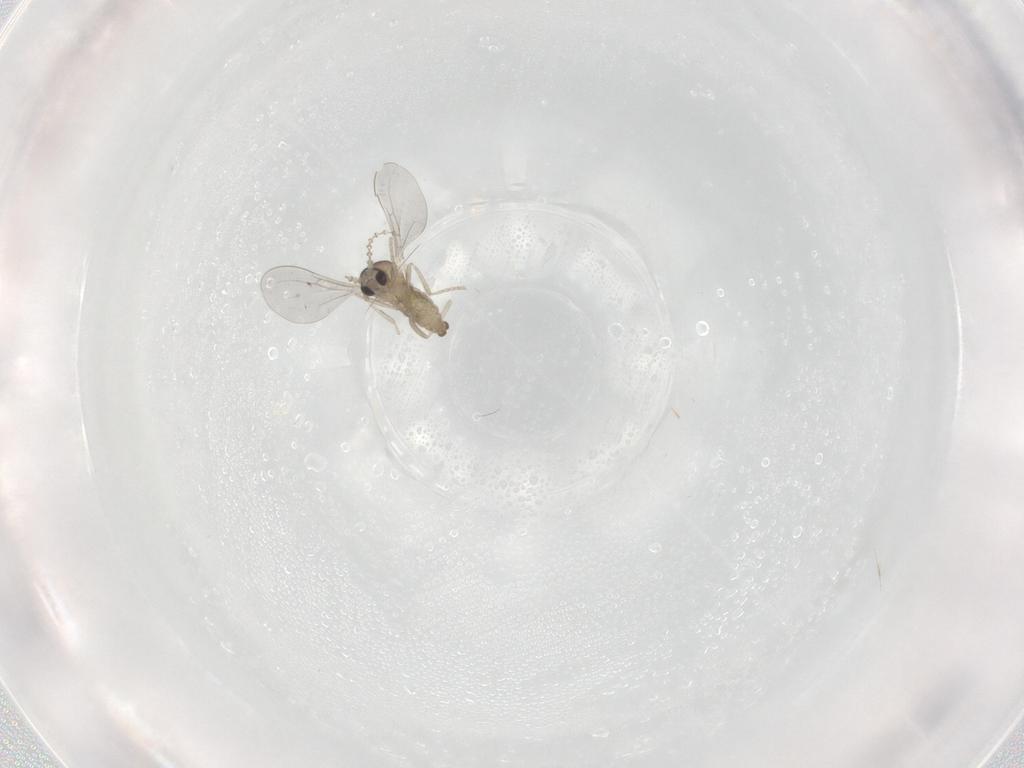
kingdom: Animalia
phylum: Arthropoda
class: Insecta
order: Diptera
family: Cecidomyiidae
